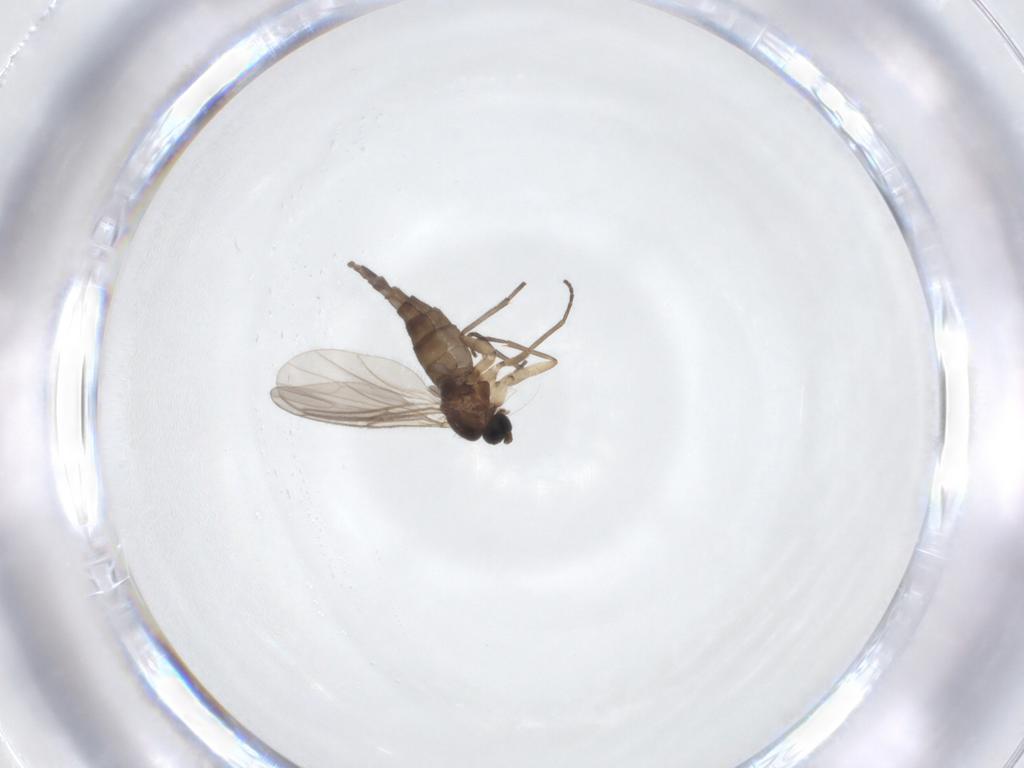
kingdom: Animalia
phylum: Arthropoda
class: Insecta
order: Diptera
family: Sciaridae
